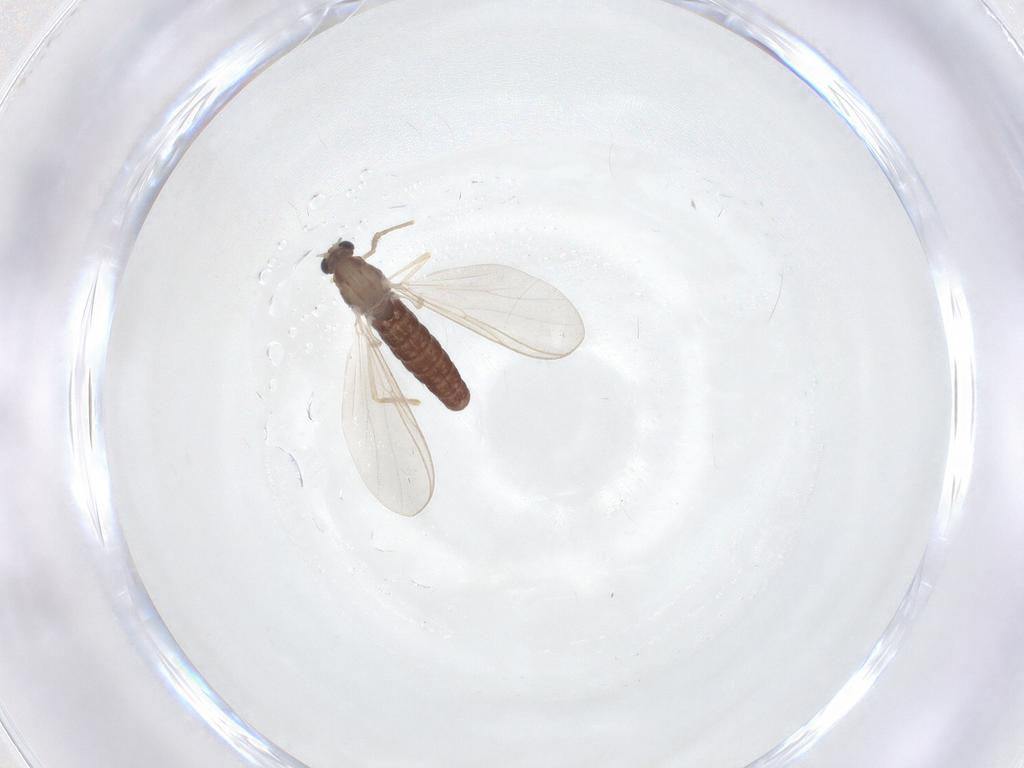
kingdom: Animalia
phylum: Arthropoda
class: Insecta
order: Diptera
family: Chironomidae
